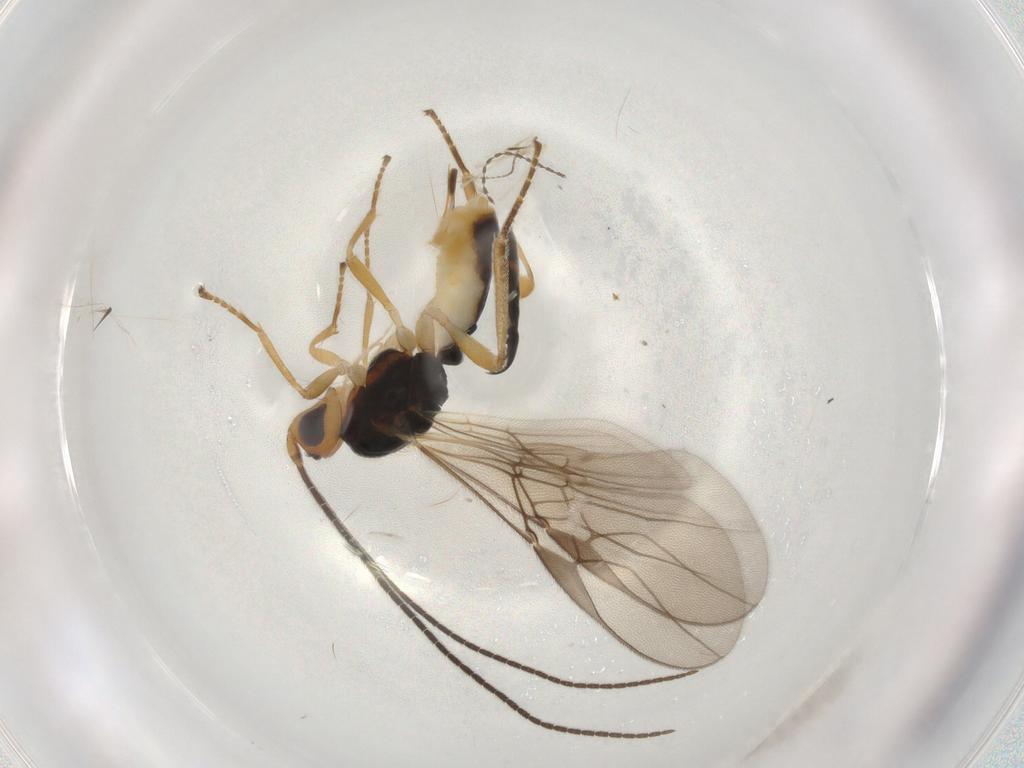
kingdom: Animalia
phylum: Arthropoda
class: Insecta
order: Hymenoptera
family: Braconidae
